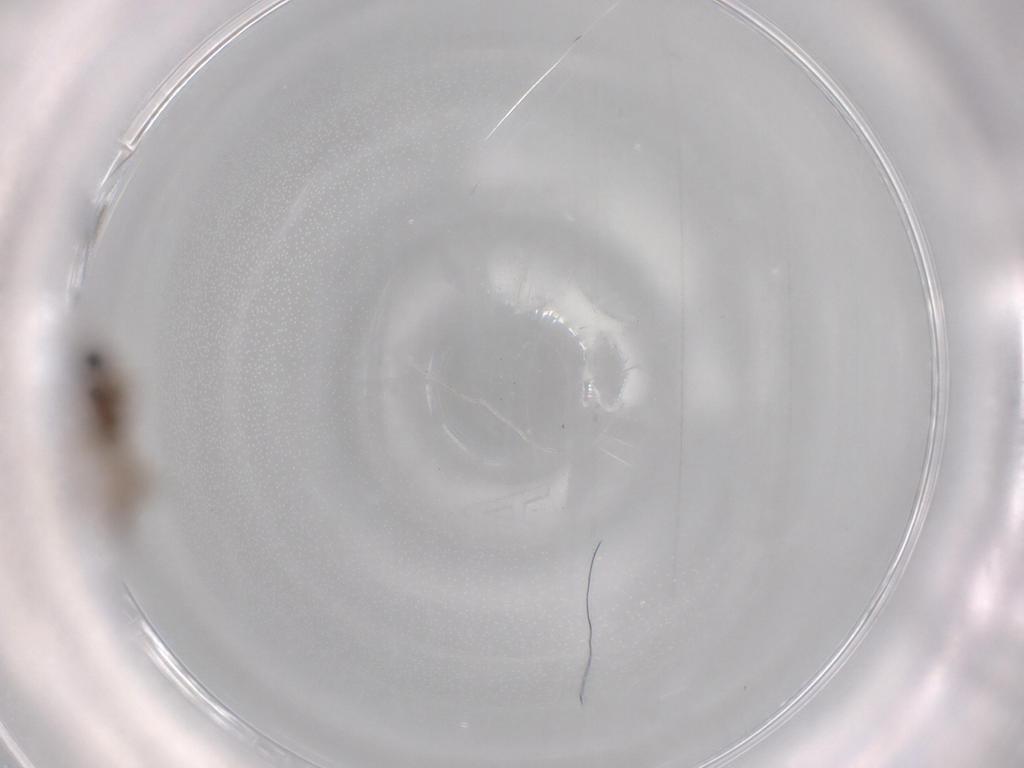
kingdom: Animalia
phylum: Arthropoda
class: Insecta
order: Diptera
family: Cecidomyiidae
